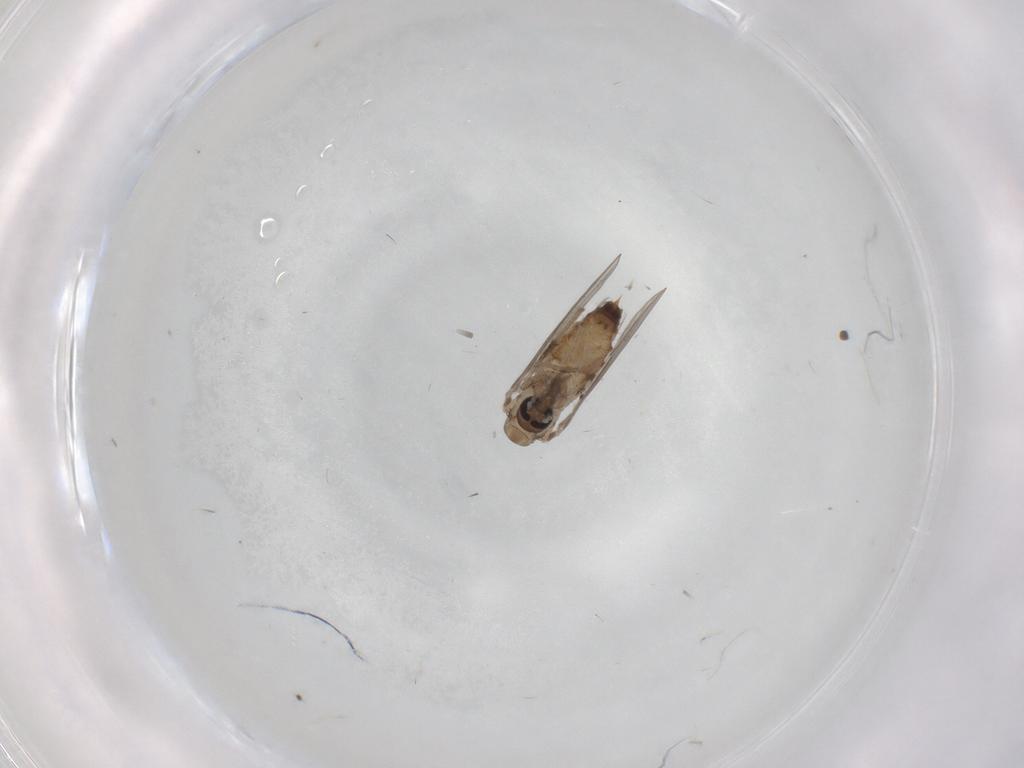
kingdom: Animalia
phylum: Arthropoda
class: Insecta
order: Diptera
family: Psychodidae
